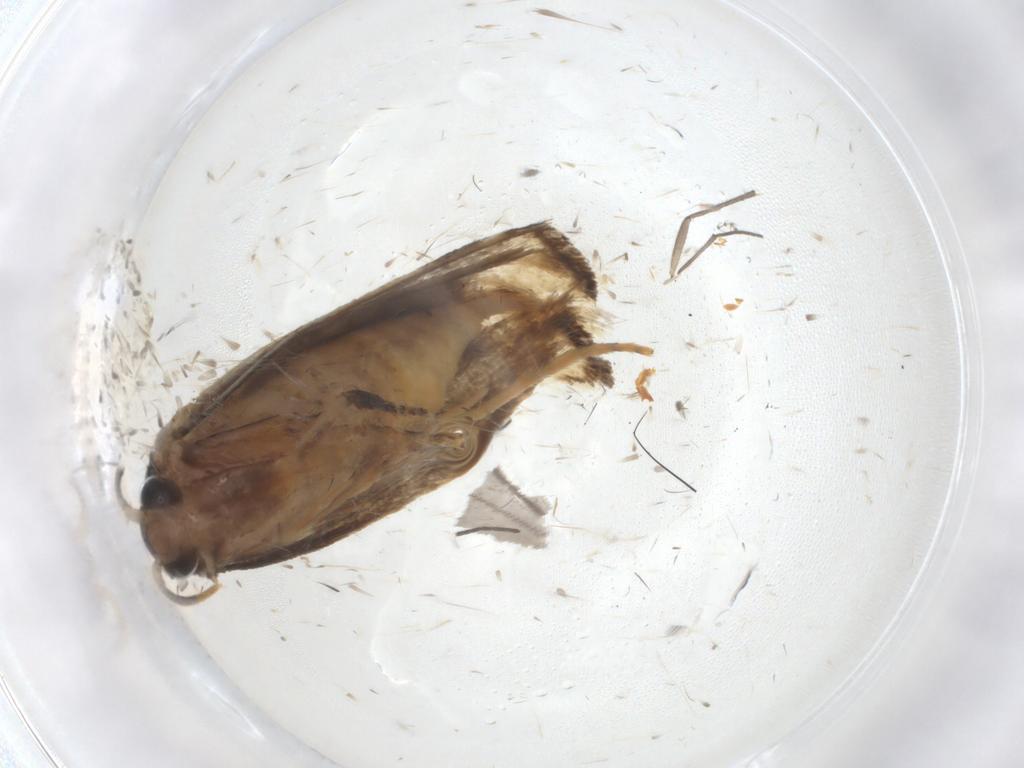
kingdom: Animalia
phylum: Arthropoda
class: Insecta
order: Lepidoptera
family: Tineidae
